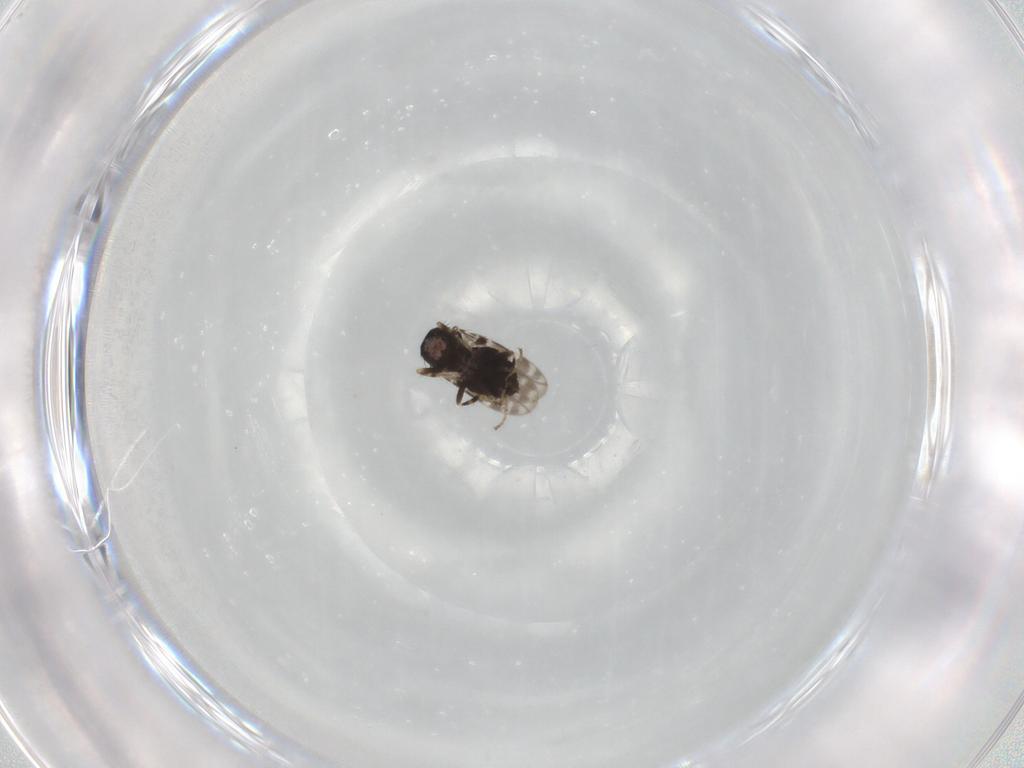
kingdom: Animalia
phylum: Arthropoda
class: Insecta
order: Diptera
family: Sphaeroceridae
